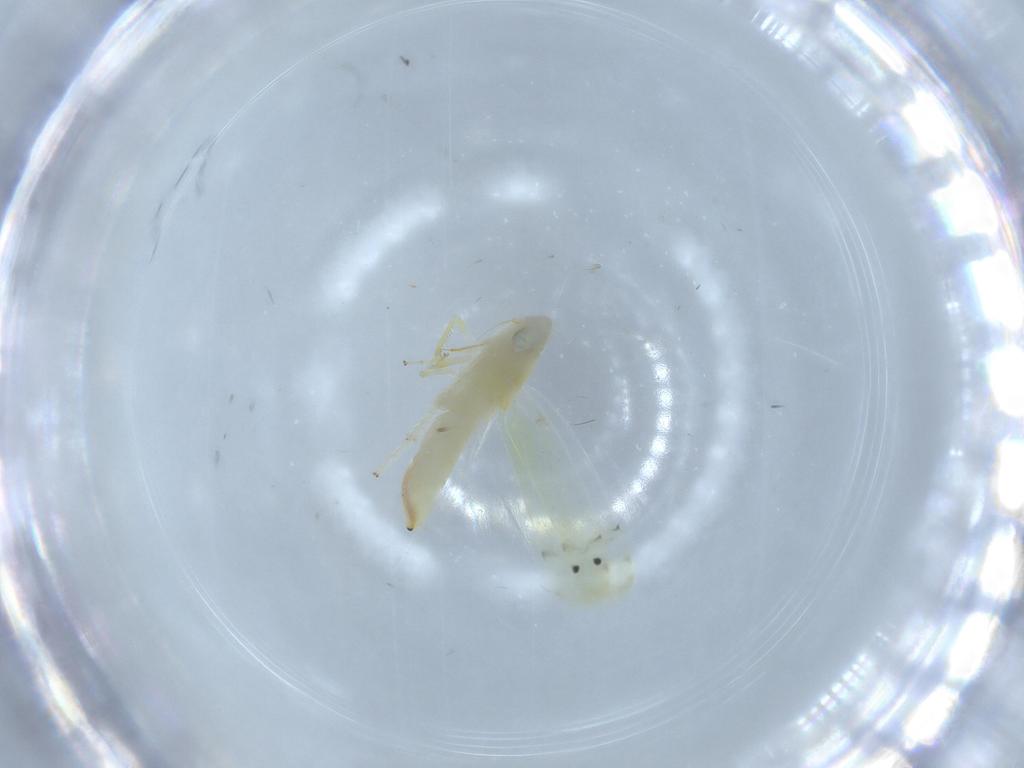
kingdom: Animalia
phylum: Arthropoda
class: Insecta
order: Hemiptera
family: Cicadellidae
